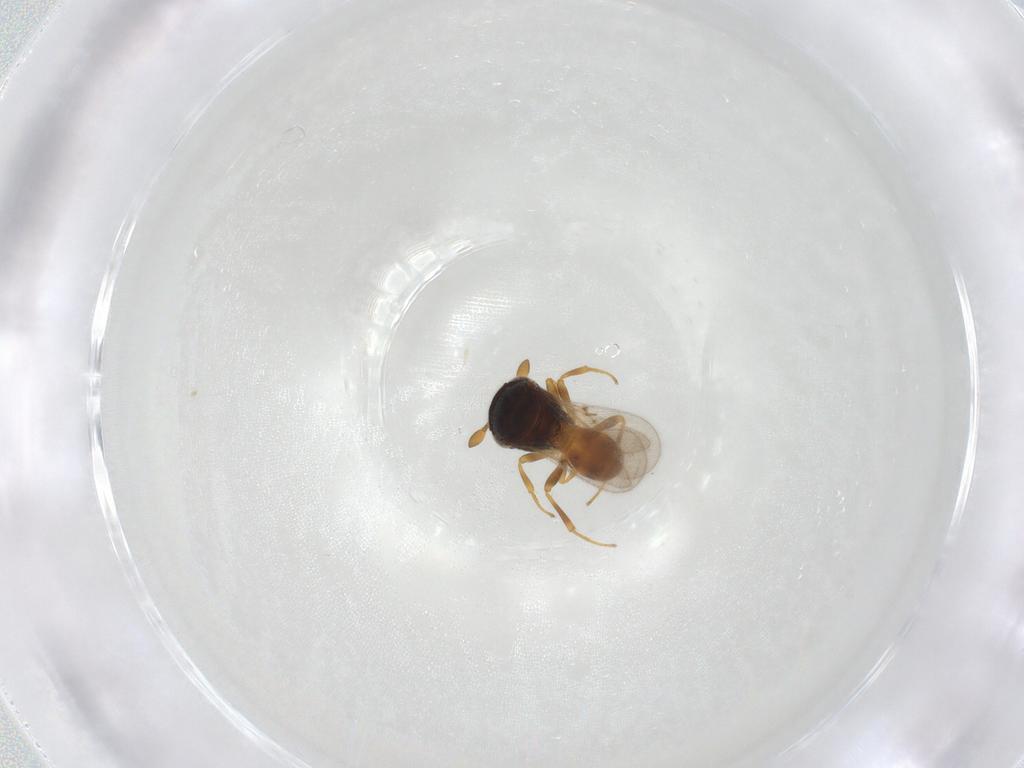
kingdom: Animalia
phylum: Arthropoda
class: Insecta
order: Hymenoptera
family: Scelionidae
